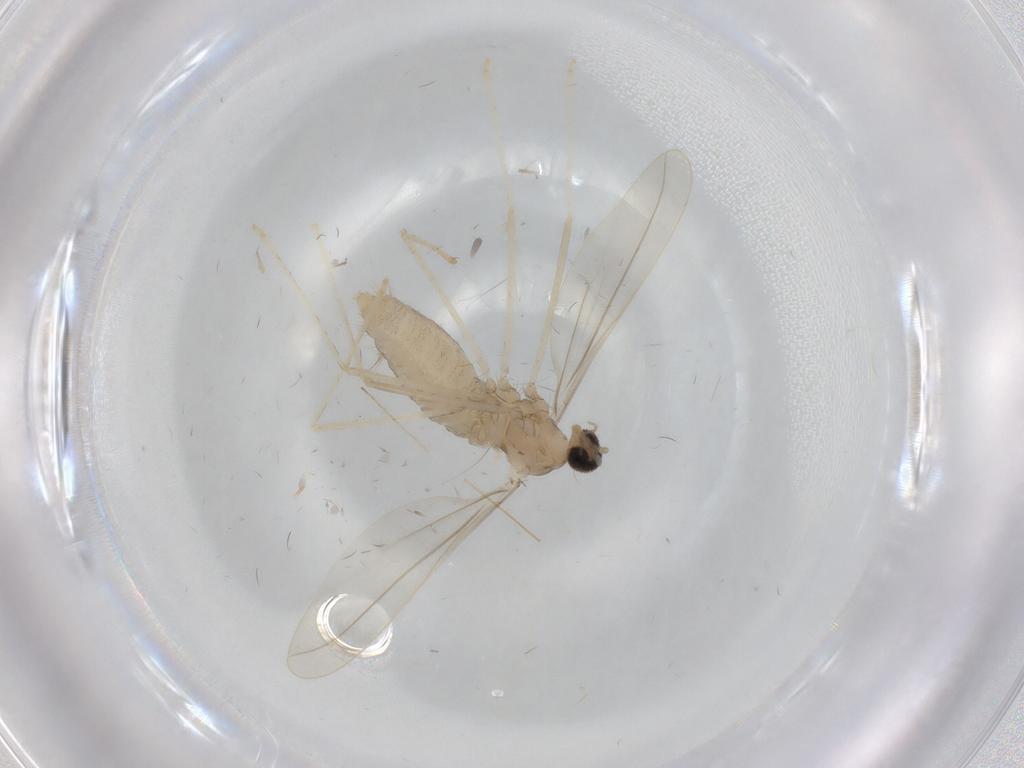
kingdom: Animalia
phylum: Arthropoda
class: Insecta
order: Diptera
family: Cecidomyiidae
